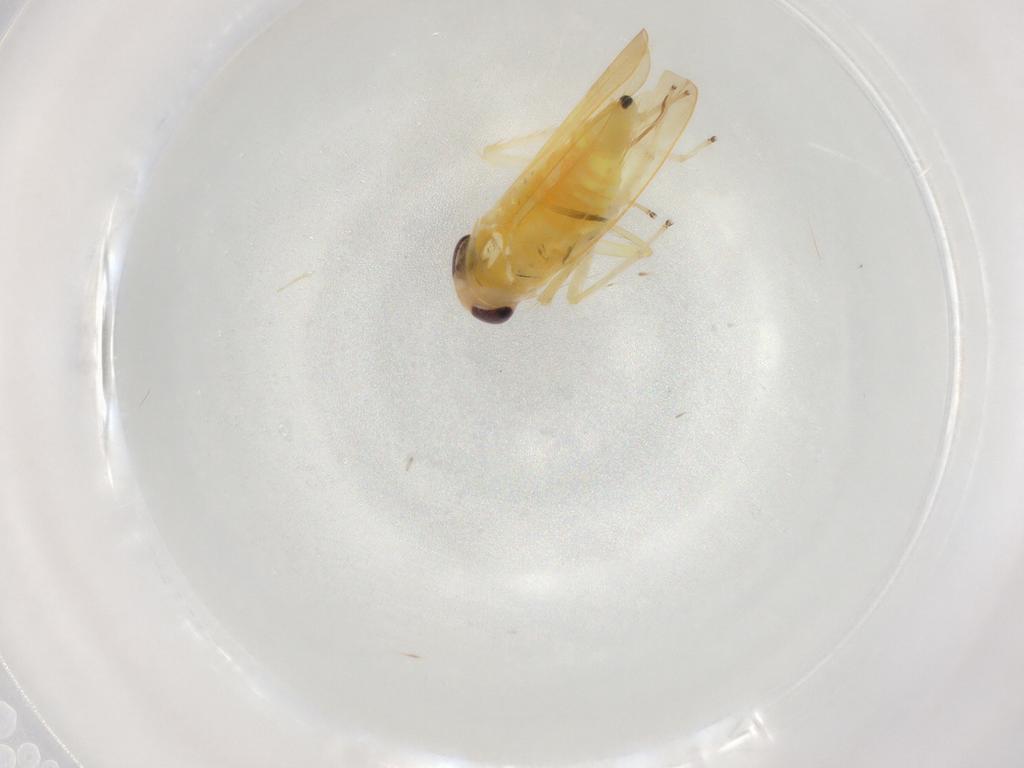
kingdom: Animalia
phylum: Arthropoda
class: Insecta
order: Hemiptera
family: Cicadellidae
